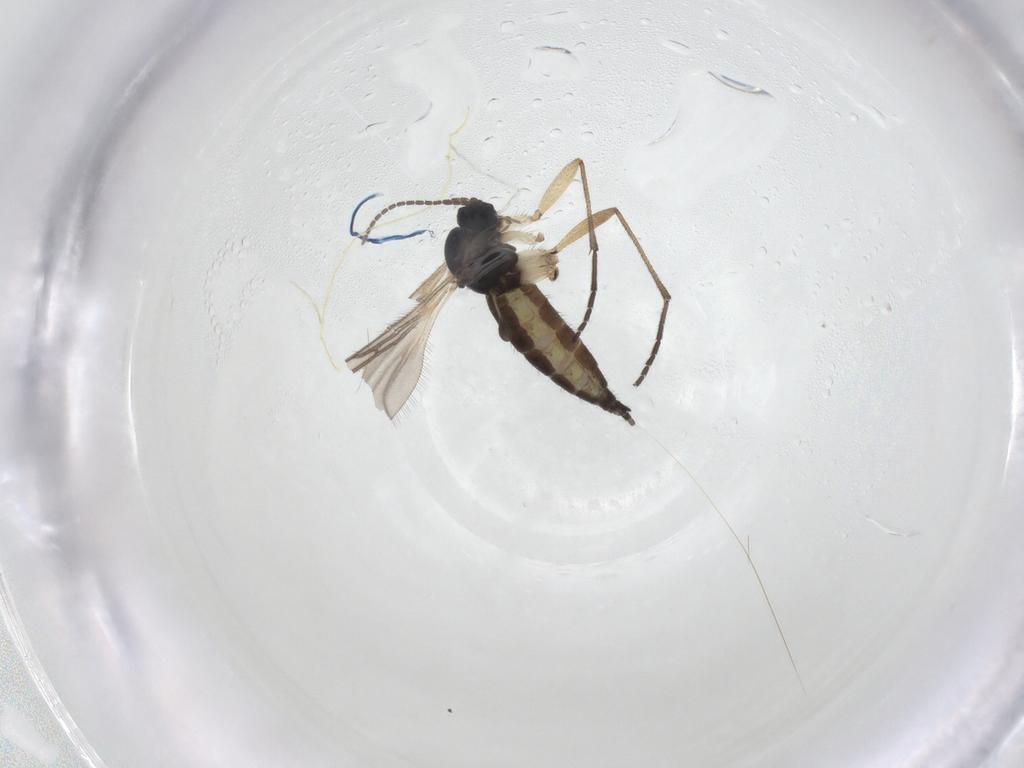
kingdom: Animalia
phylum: Arthropoda
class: Insecta
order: Diptera
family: Sciaridae
